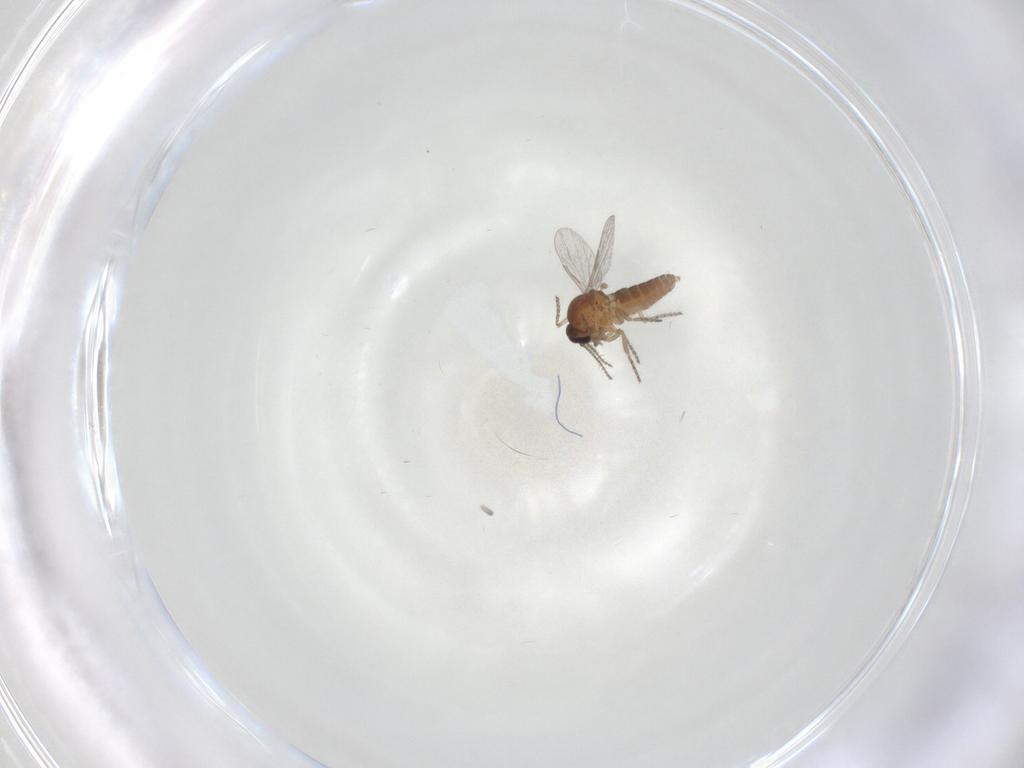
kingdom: Animalia
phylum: Arthropoda
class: Insecta
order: Diptera
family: Ceratopogonidae
